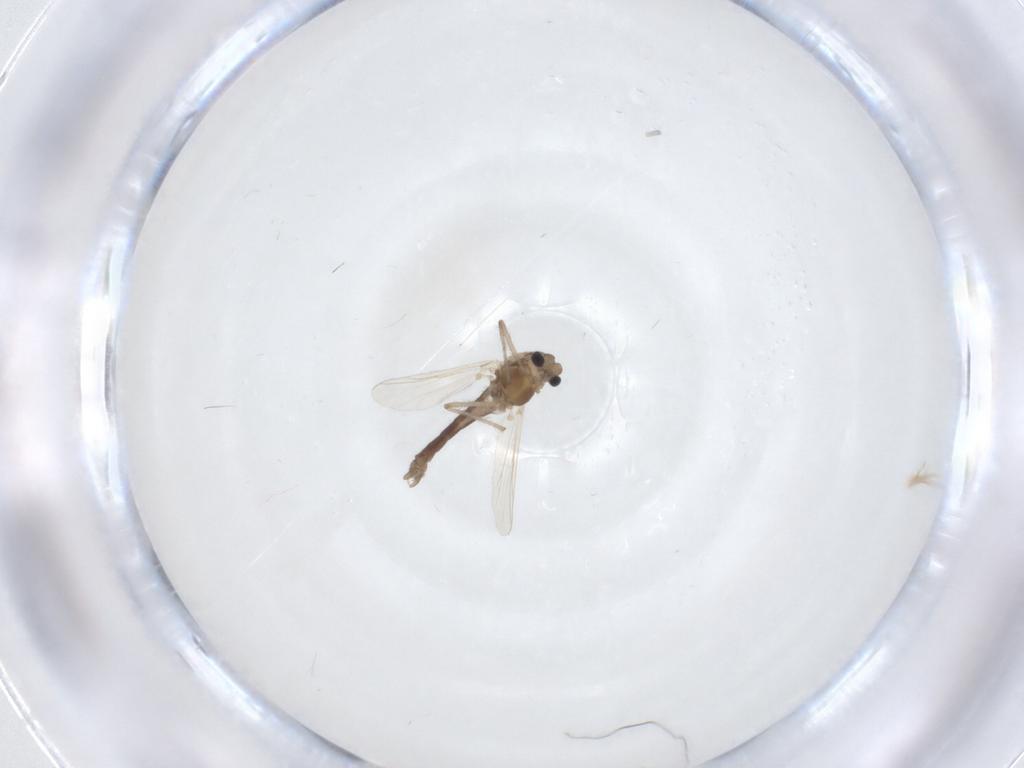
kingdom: Animalia
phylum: Arthropoda
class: Insecta
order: Diptera
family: Chironomidae
